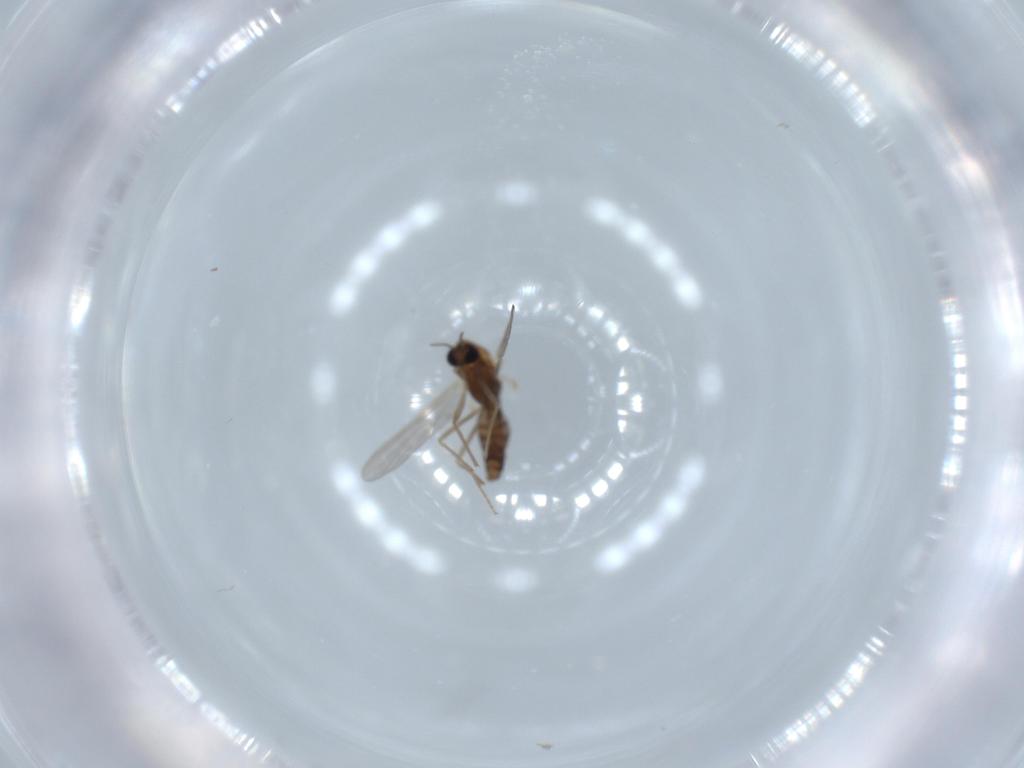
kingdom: Animalia
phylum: Arthropoda
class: Insecta
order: Diptera
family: Chironomidae
